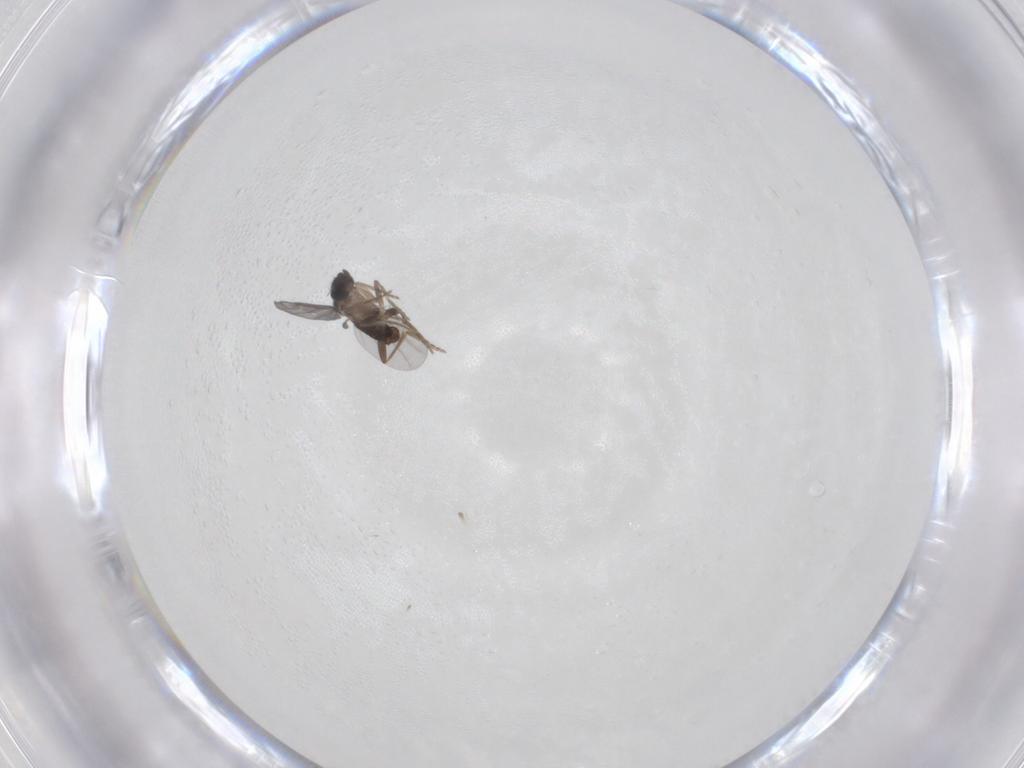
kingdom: Animalia
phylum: Arthropoda
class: Insecta
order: Diptera
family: Phoridae
